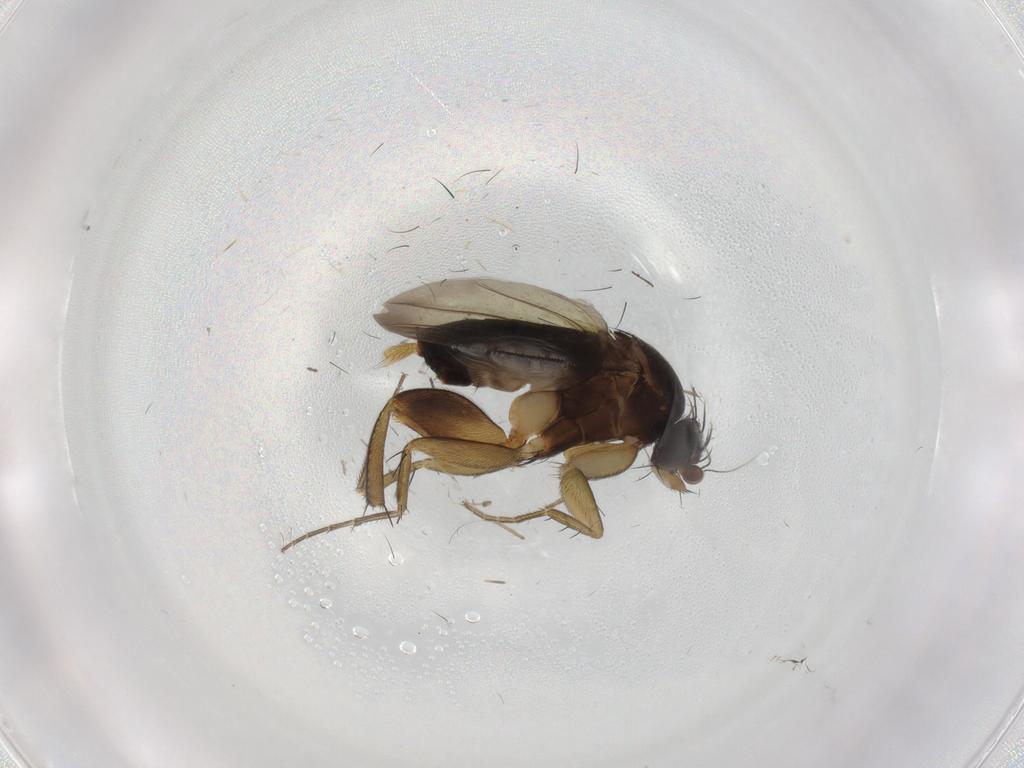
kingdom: Animalia
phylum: Arthropoda
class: Insecta
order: Diptera
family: Phoridae
